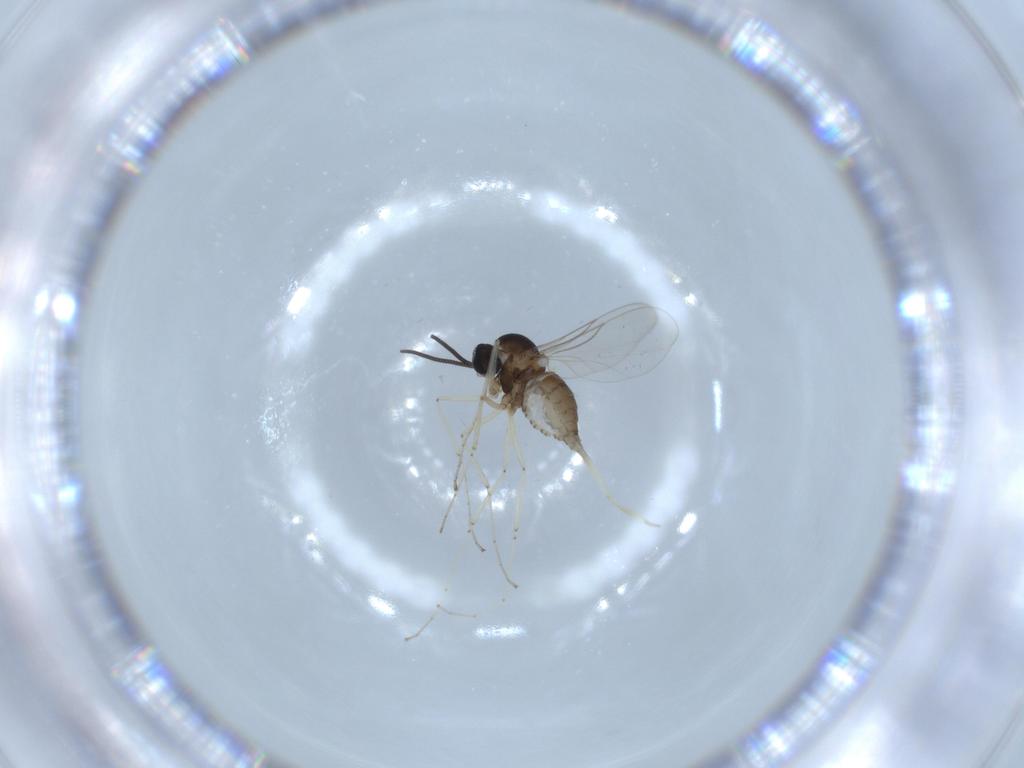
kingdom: Animalia
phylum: Arthropoda
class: Insecta
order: Diptera
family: Cecidomyiidae
